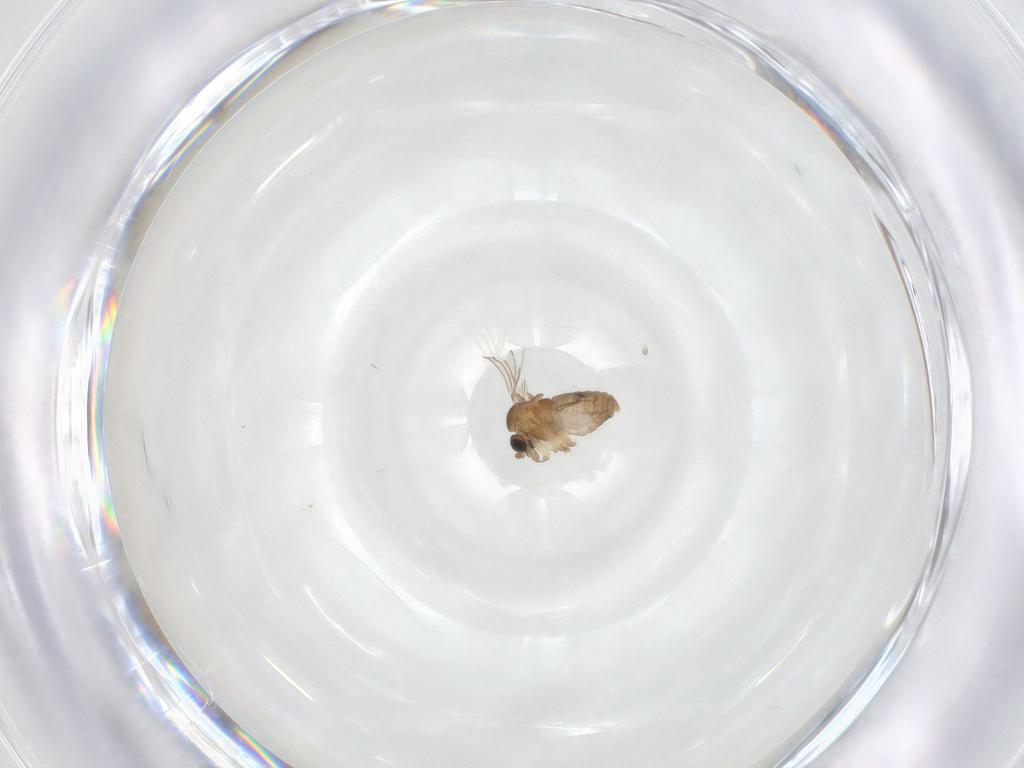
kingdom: Animalia
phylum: Arthropoda
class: Insecta
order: Diptera
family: Psychodidae
